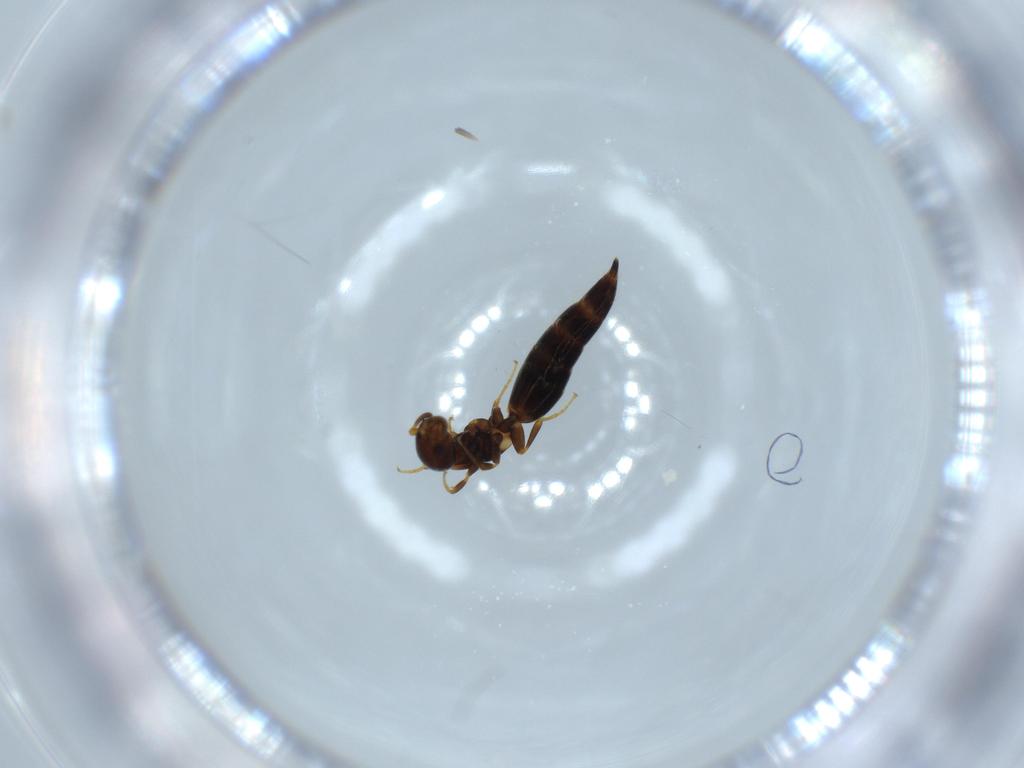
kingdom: Animalia
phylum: Arthropoda
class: Insecta
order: Hymenoptera
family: Bethylidae
